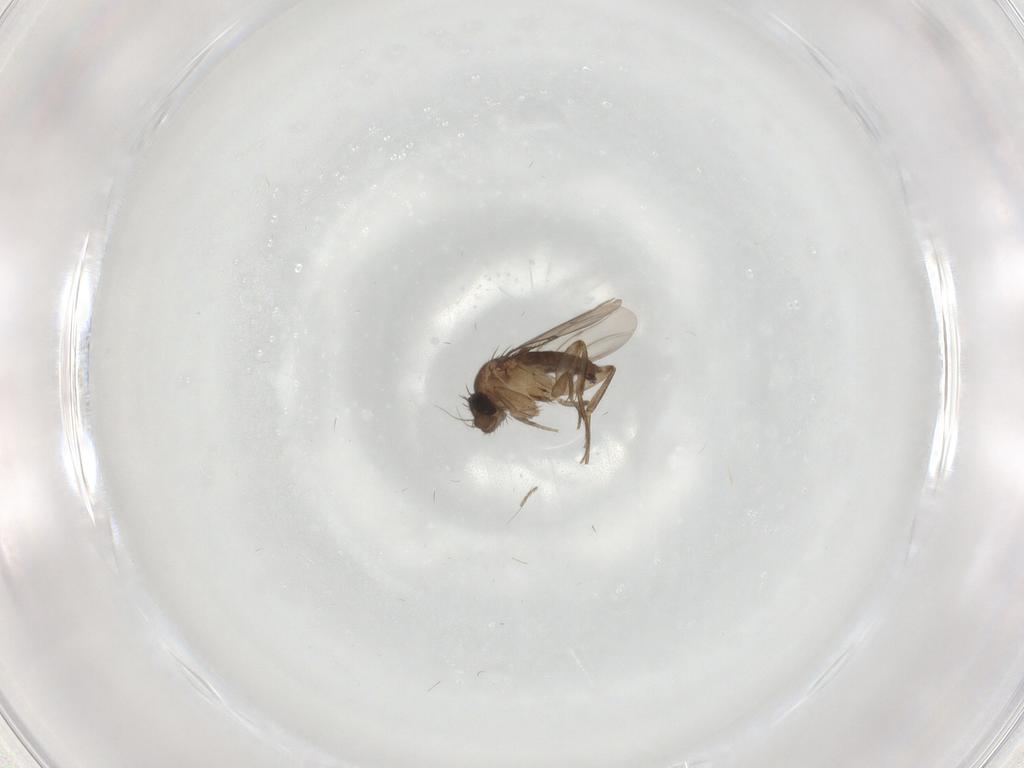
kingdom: Animalia
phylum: Arthropoda
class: Insecta
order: Diptera
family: Phoridae
